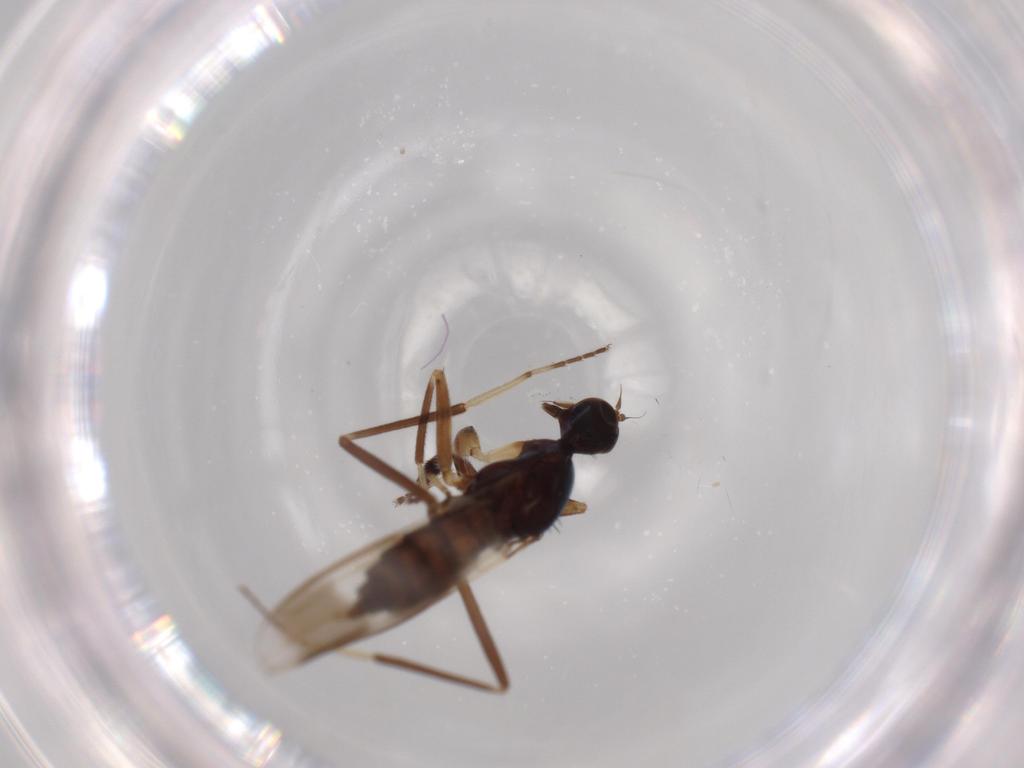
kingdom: Animalia
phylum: Arthropoda
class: Insecta
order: Diptera
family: Hybotidae
